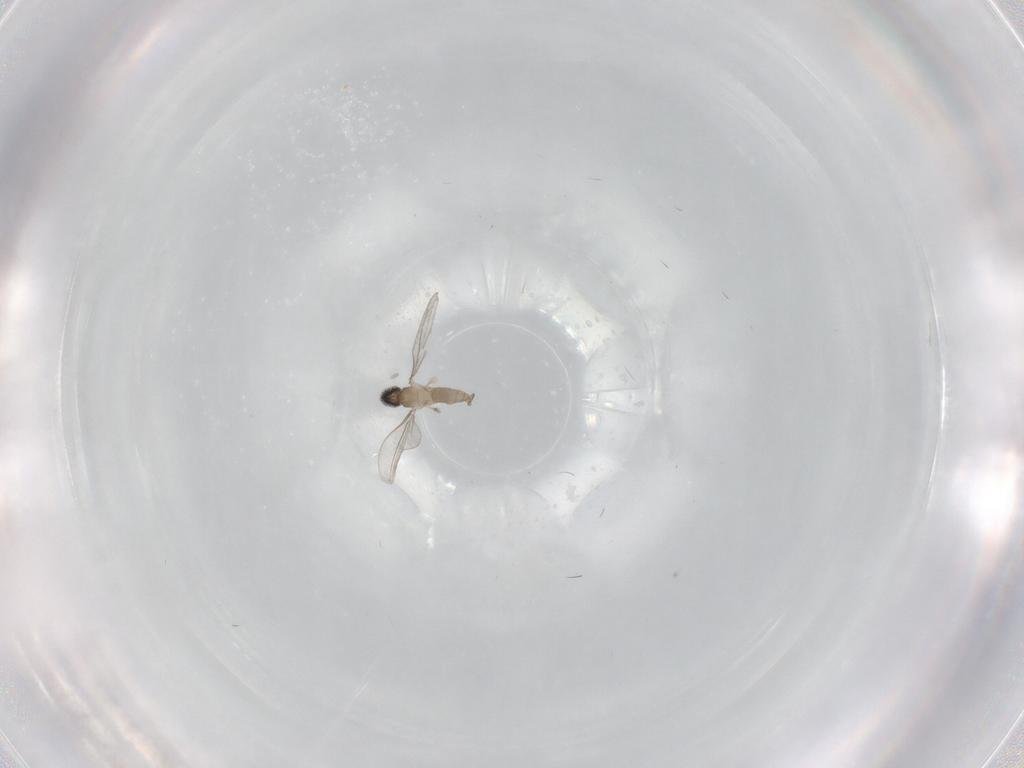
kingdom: Animalia
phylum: Arthropoda
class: Insecta
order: Diptera
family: Cecidomyiidae
